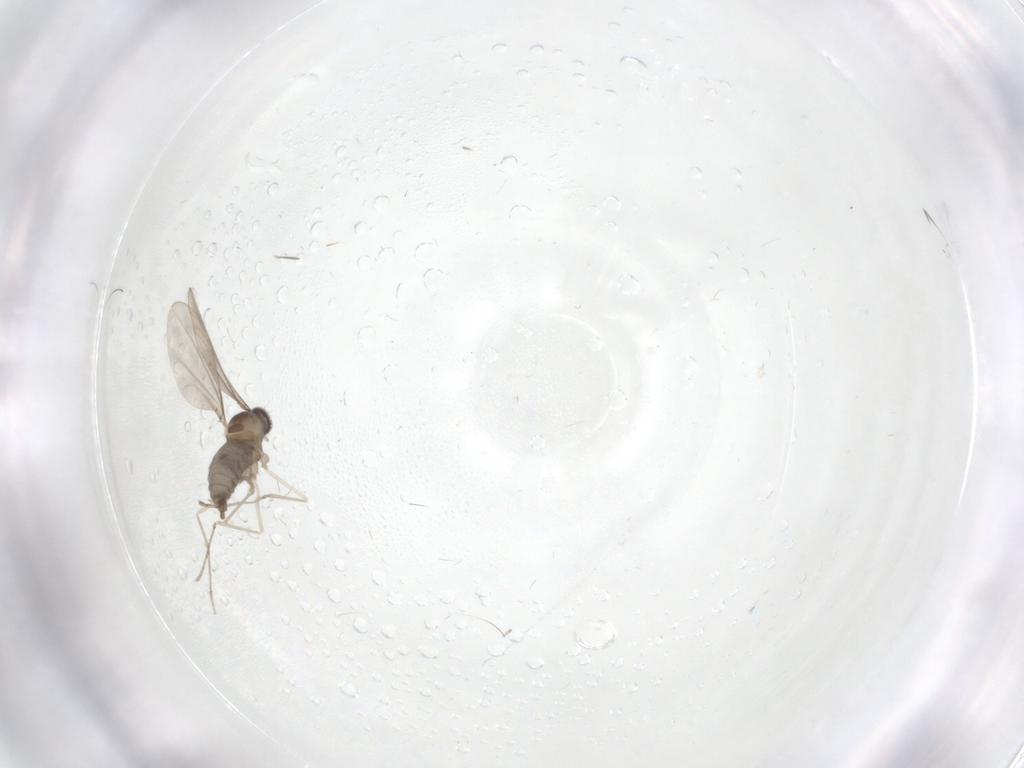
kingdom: Animalia
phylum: Arthropoda
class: Insecta
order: Diptera
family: Cecidomyiidae
